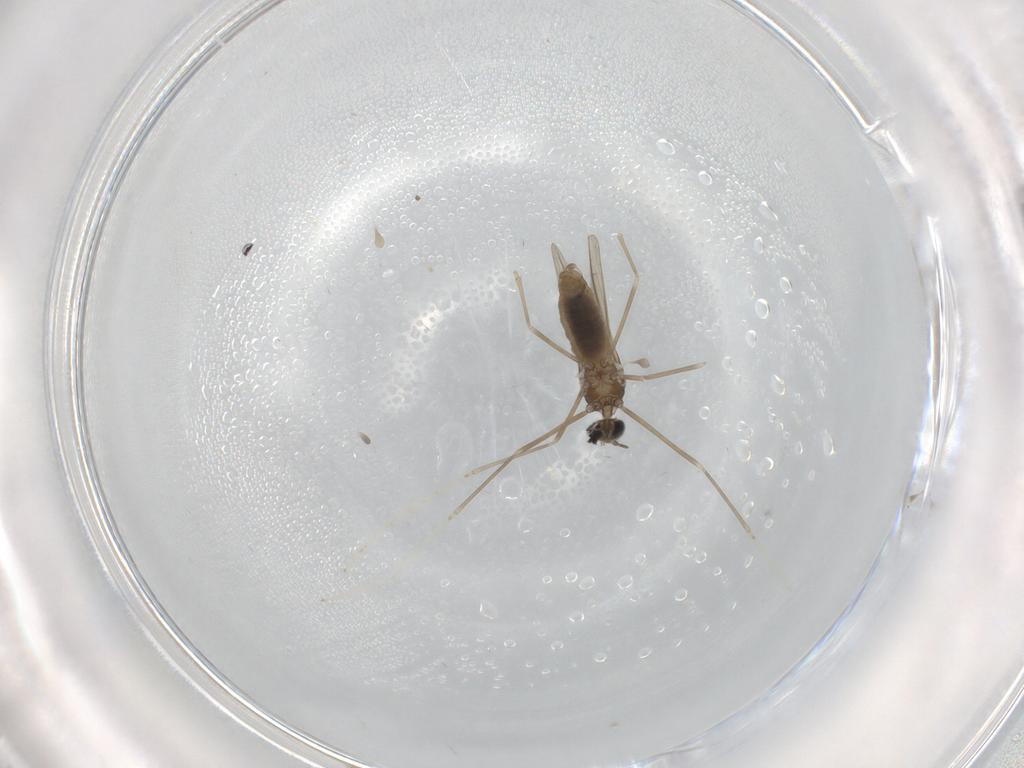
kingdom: Animalia
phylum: Arthropoda
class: Insecta
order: Diptera
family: Cecidomyiidae
